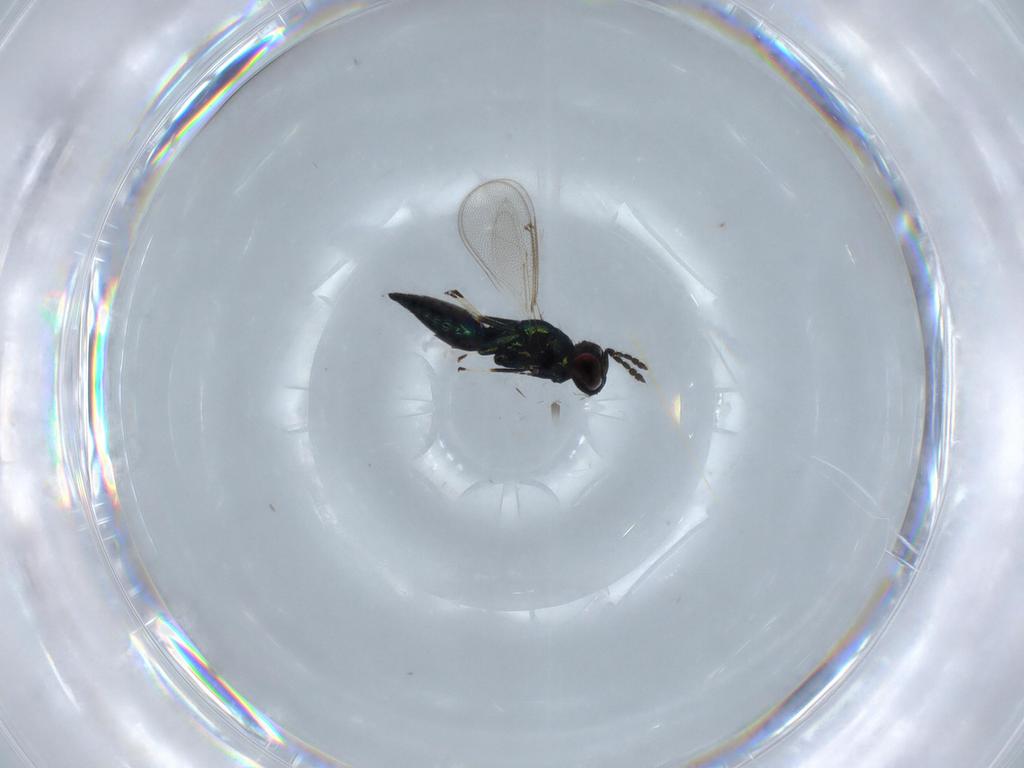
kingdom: Animalia
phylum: Arthropoda
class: Insecta
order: Hymenoptera
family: Eulophidae
